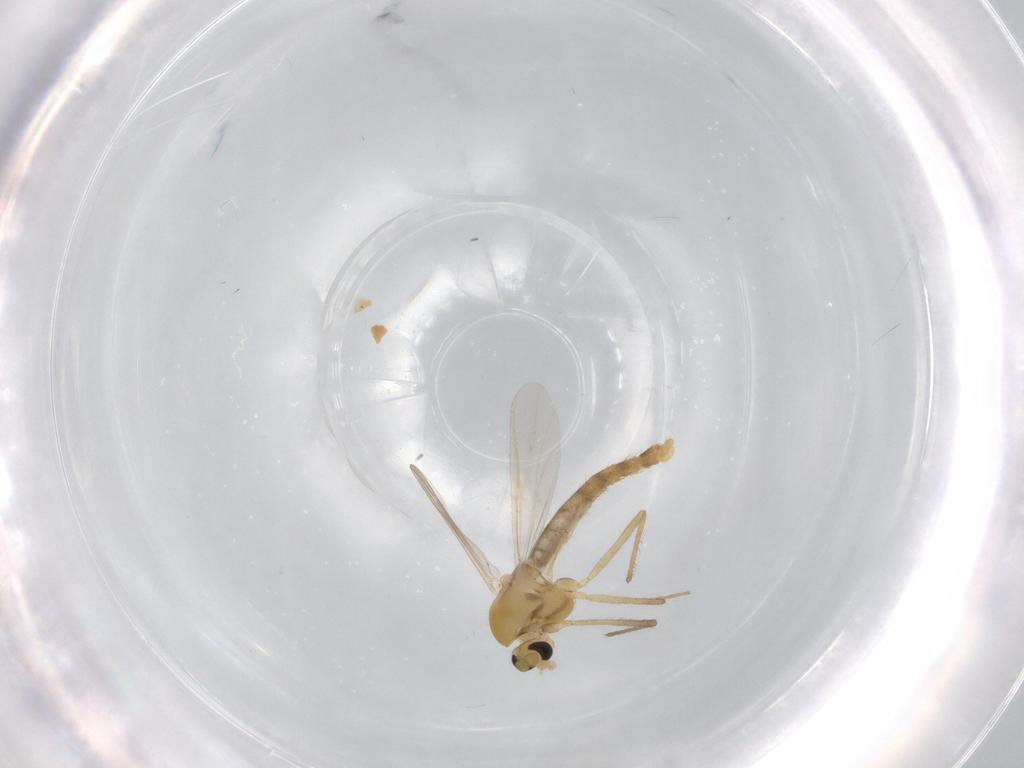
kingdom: Animalia
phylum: Arthropoda
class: Insecta
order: Diptera
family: Chironomidae
